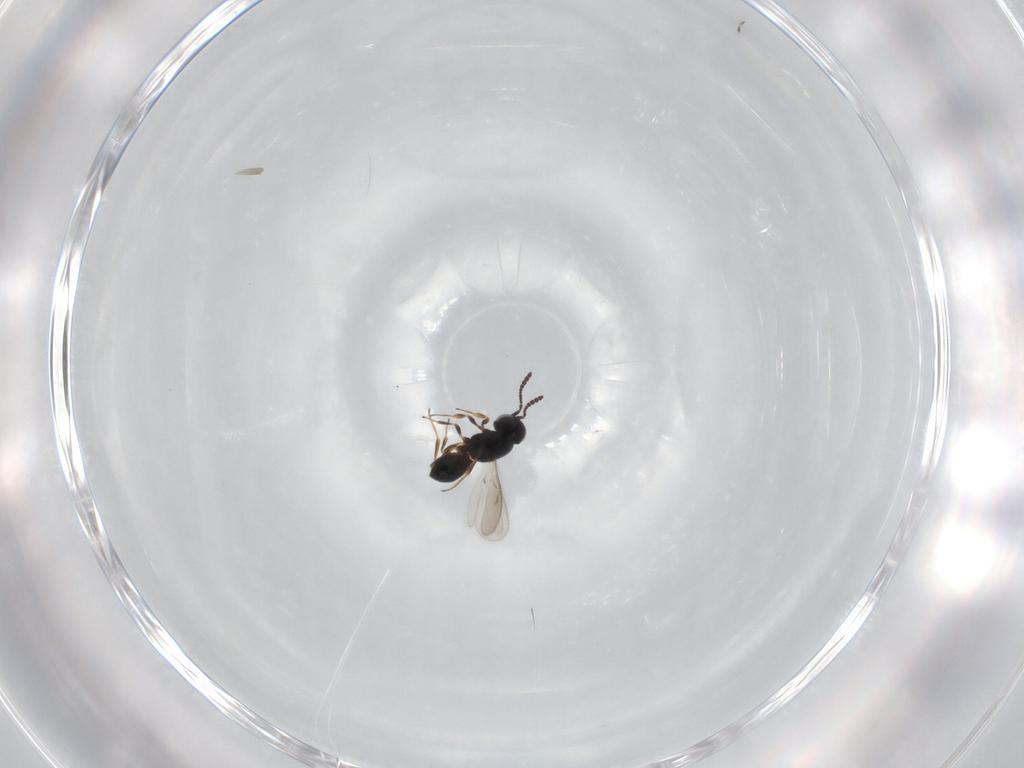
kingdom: Animalia
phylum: Arthropoda
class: Insecta
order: Hymenoptera
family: Scelionidae
